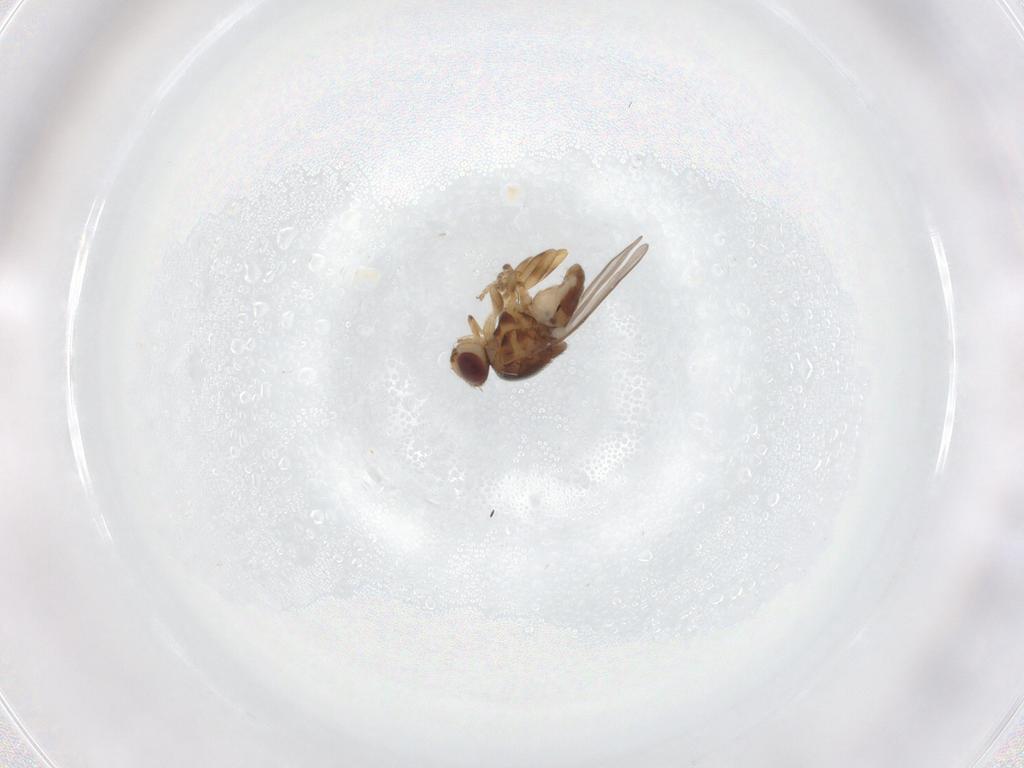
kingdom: Animalia
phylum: Arthropoda
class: Insecta
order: Diptera
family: Chloropidae
